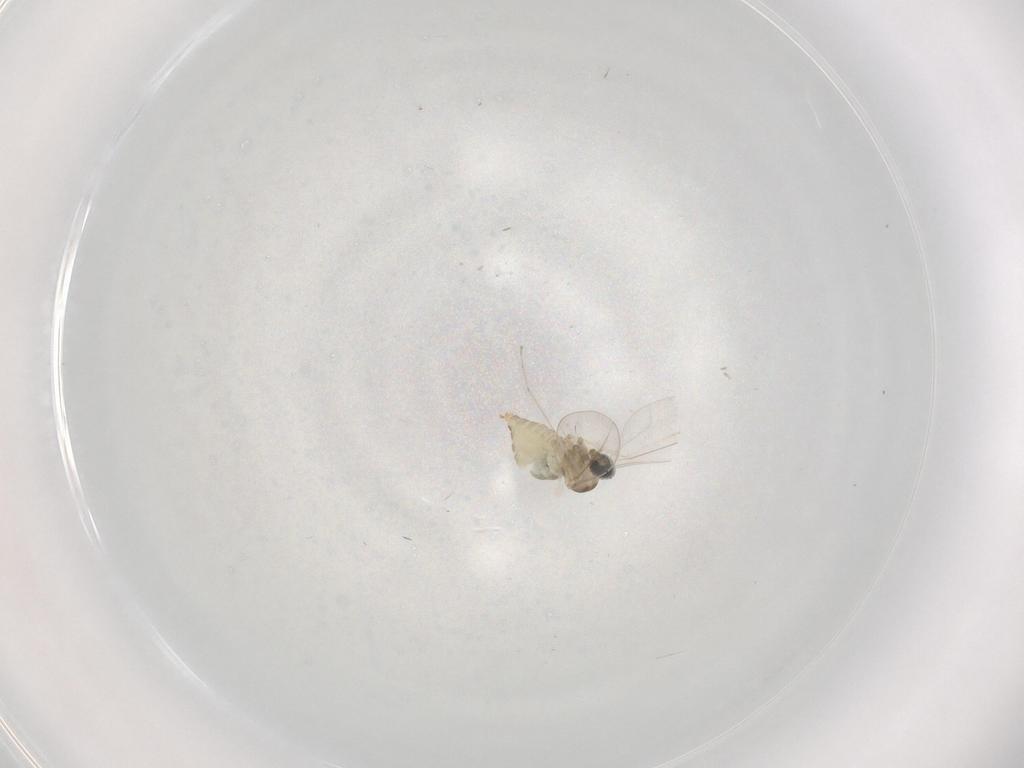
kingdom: Animalia
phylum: Arthropoda
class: Insecta
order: Diptera
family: Cecidomyiidae
